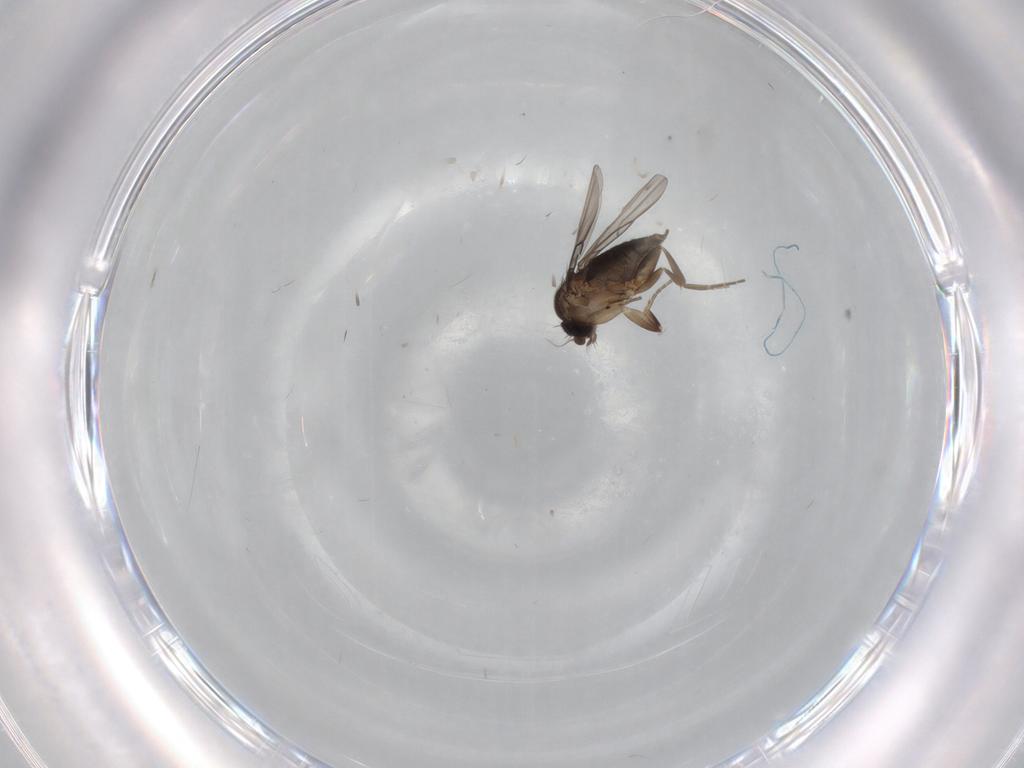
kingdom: Animalia
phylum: Arthropoda
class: Insecta
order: Diptera
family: Phoridae
